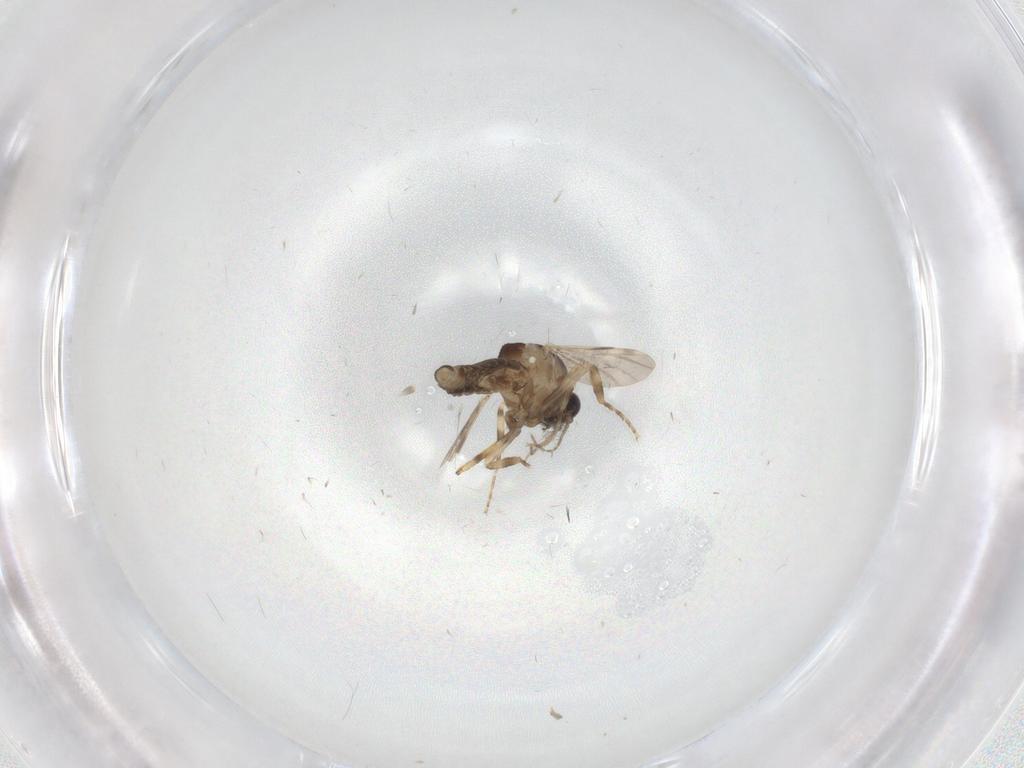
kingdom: Animalia
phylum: Arthropoda
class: Insecta
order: Diptera
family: Ceratopogonidae
